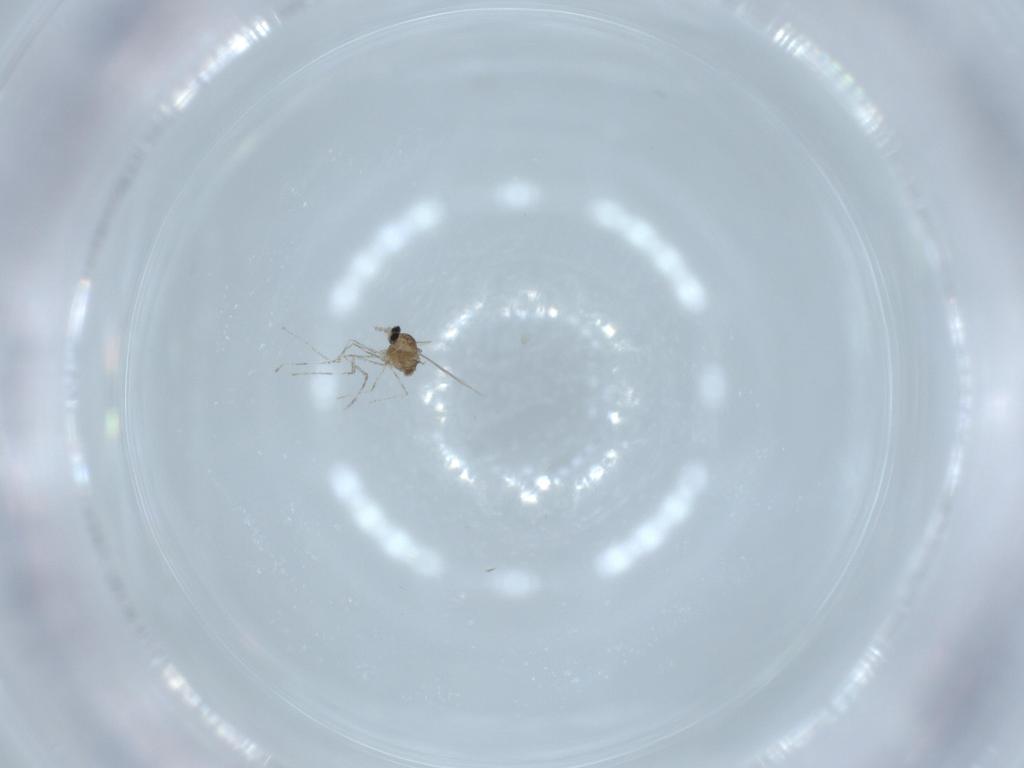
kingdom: Animalia
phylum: Arthropoda
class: Insecta
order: Diptera
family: Cecidomyiidae
